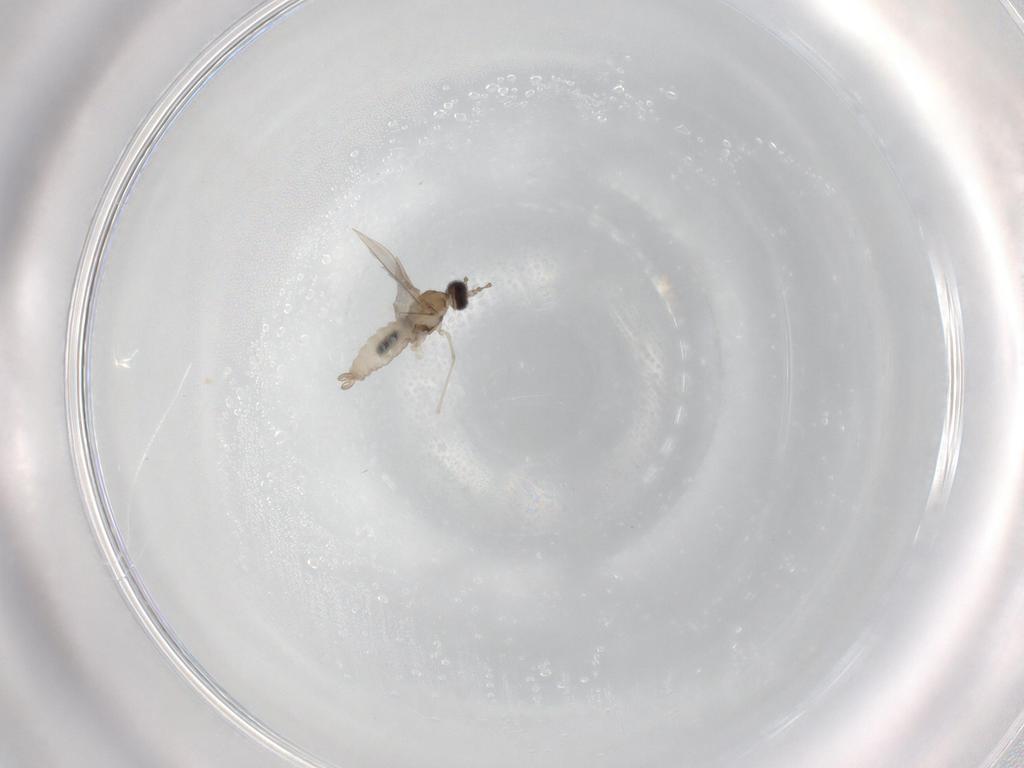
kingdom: Animalia
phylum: Arthropoda
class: Insecta
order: Diptera
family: Cecidomyiidae
